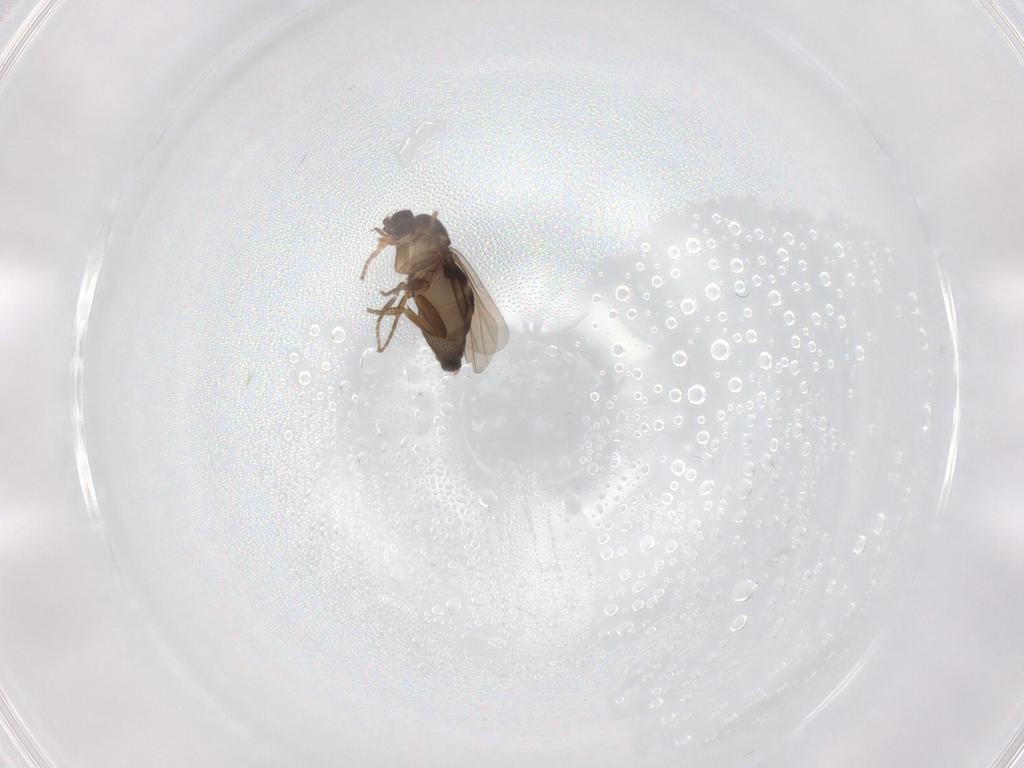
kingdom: Animalia
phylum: Arthropoda
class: Insecta
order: Diptera
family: Phoridae
